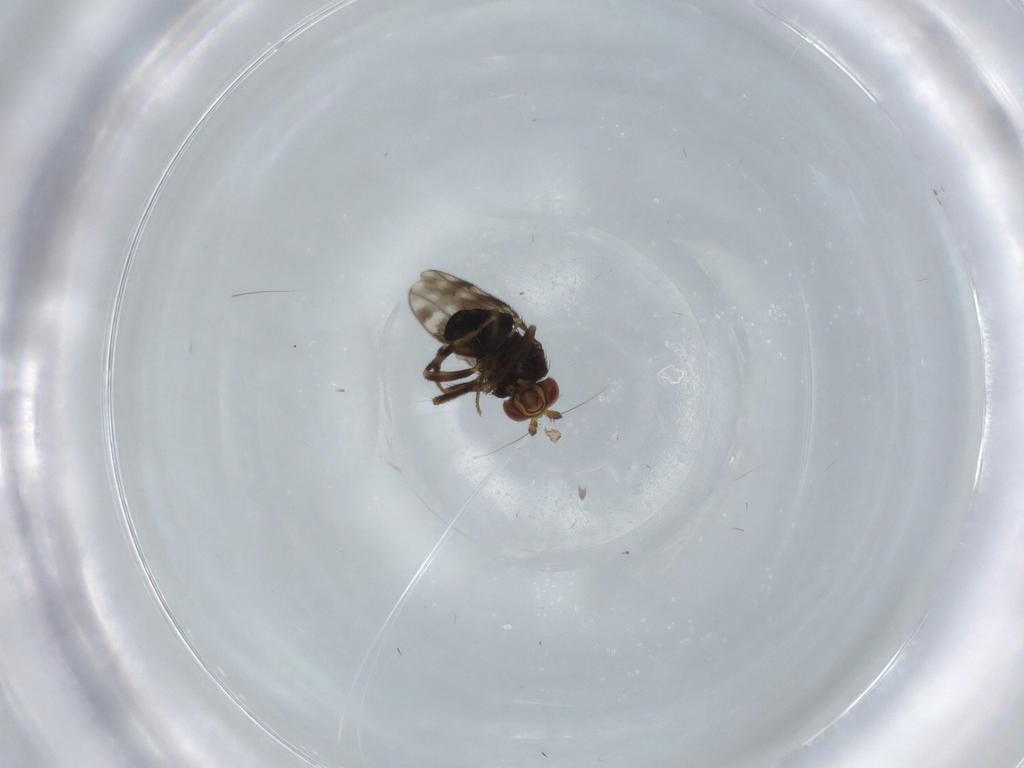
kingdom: Animalia
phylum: Arthropoda
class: Insecta
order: Diptera
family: Sphaeroceridae
